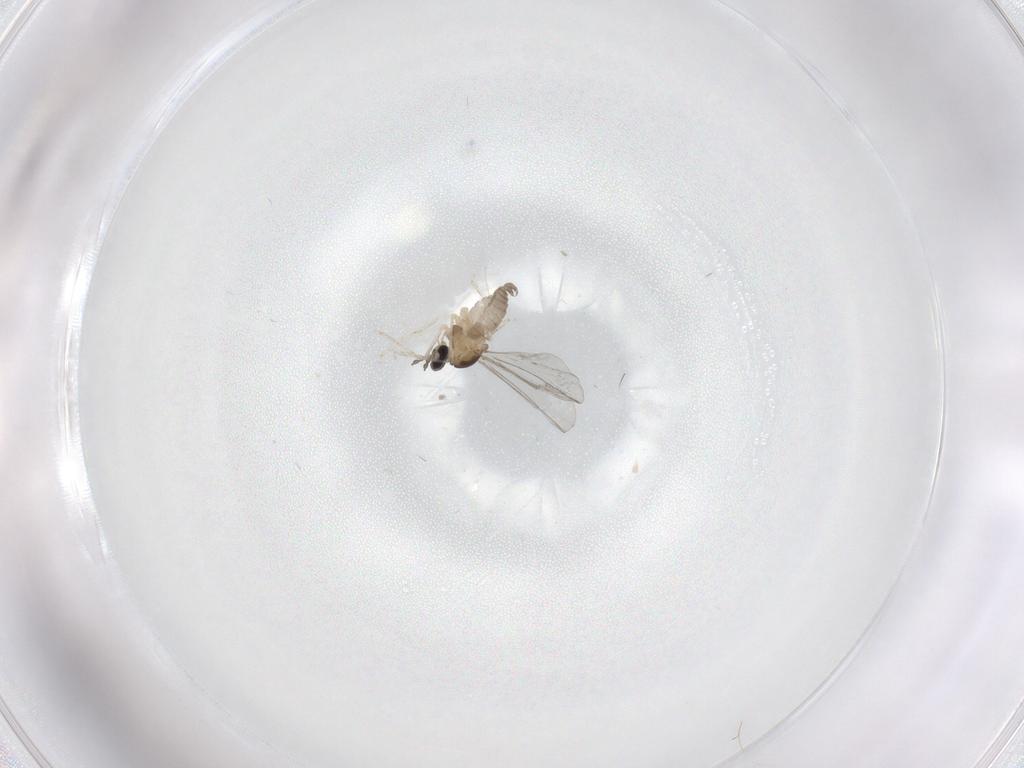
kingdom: Animalia
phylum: Arthropoda
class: Insecta
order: Diptera
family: Cecidomyiidae
